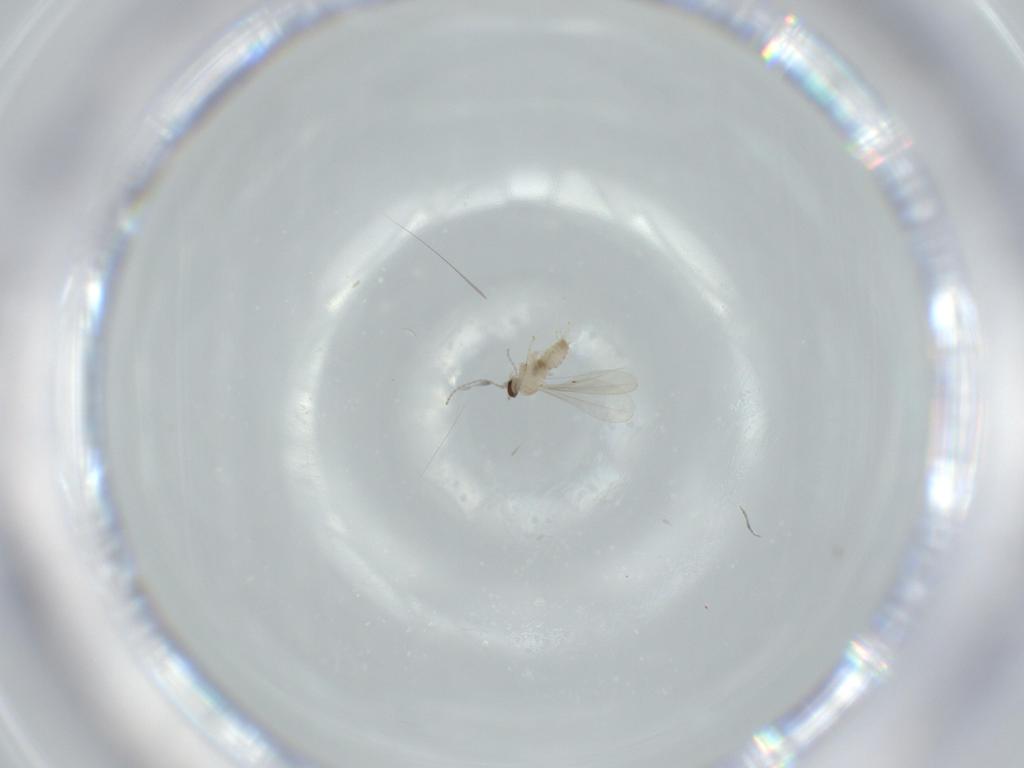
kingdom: Animalia
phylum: Arthropoda
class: Insecta
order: Diptera
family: Cecidomyiidae
